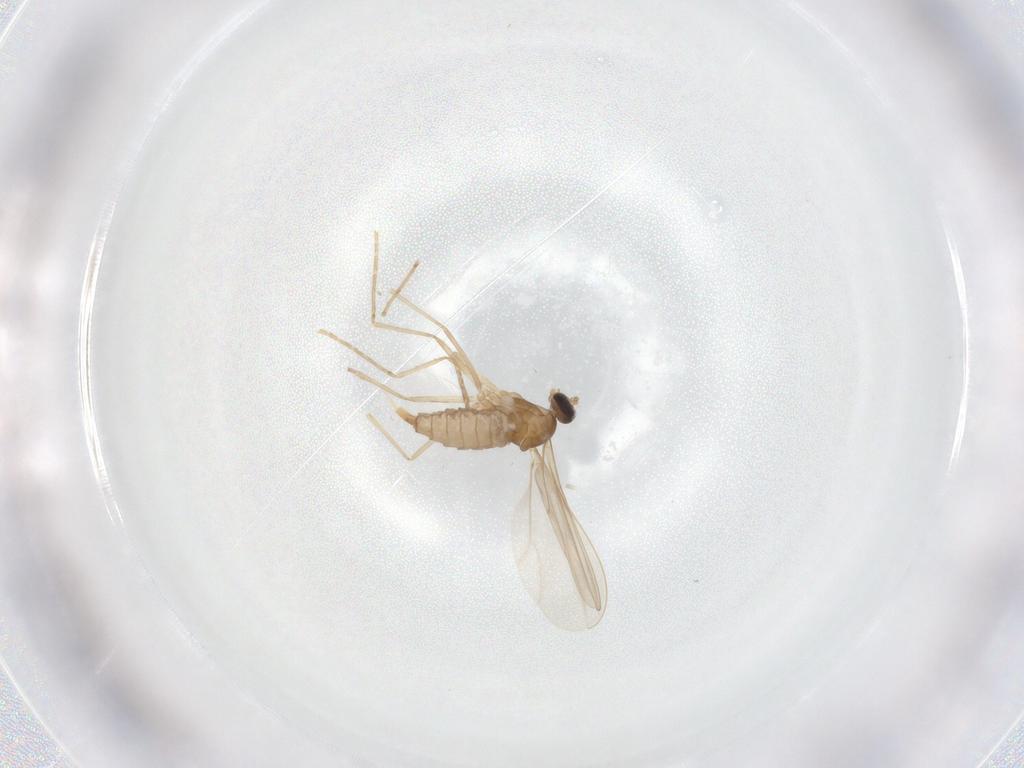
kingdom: Animalia
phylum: Arthropoda
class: Insecta
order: Diptera
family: Cecidomyiidae
